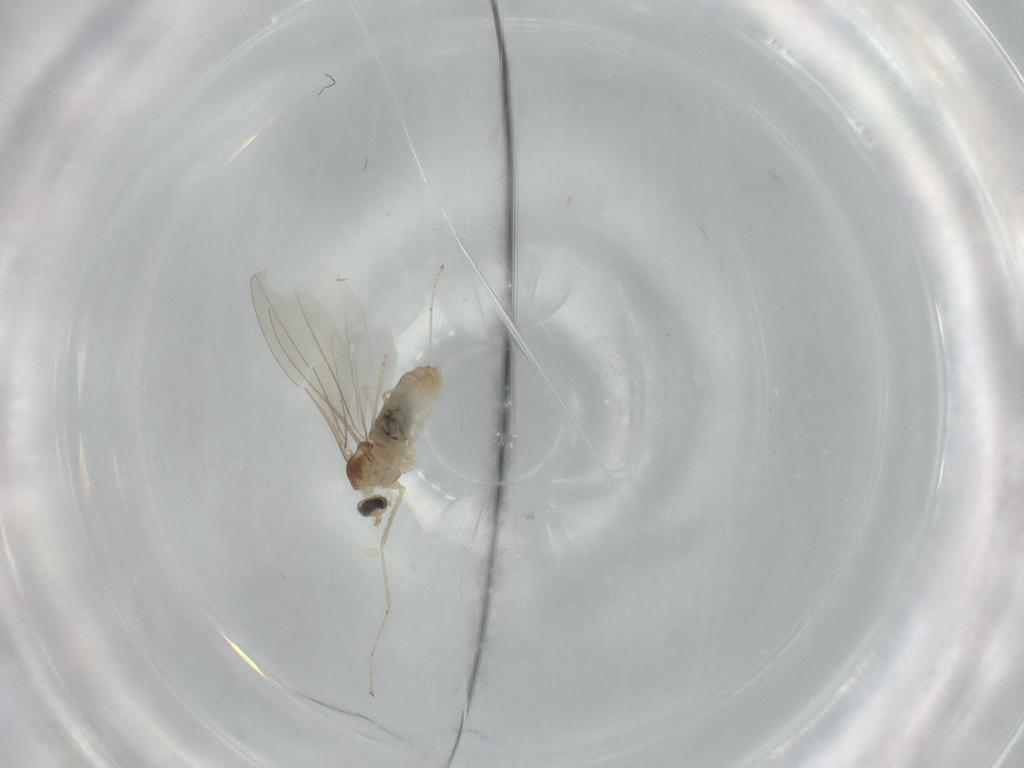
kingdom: Animalia
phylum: Arthropoda
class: Insecta
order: Diptera
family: Cecidomyiidae
